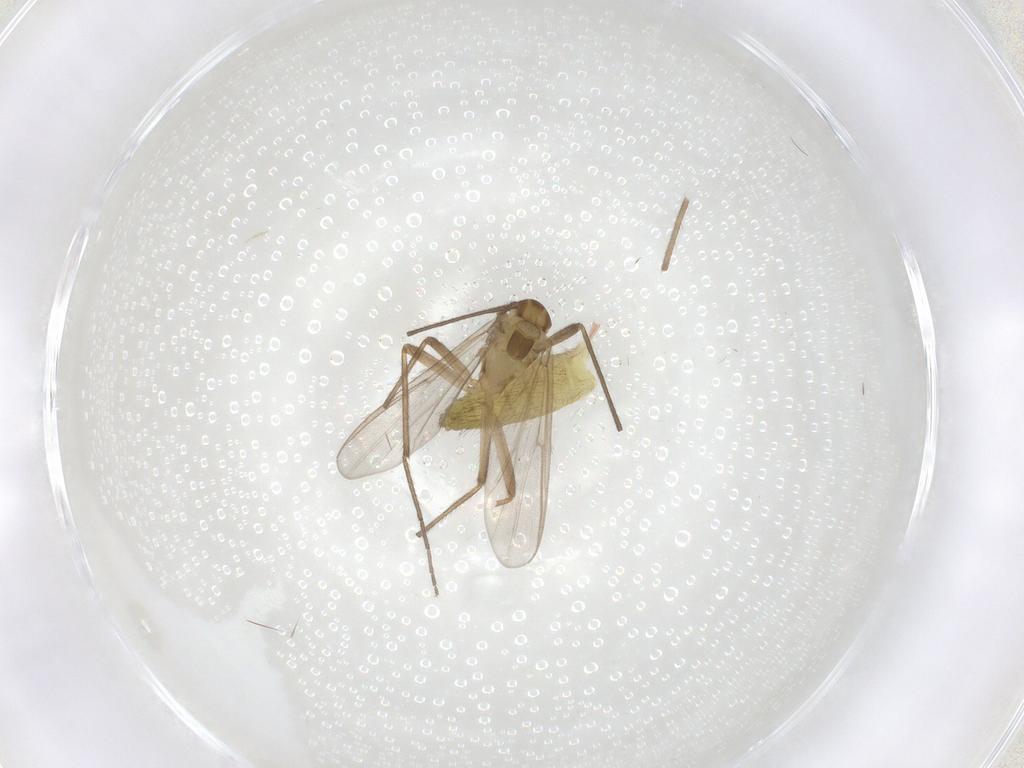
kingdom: Animalia
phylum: Arthropoda
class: Insecta
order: Diptera
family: Chironomidae
